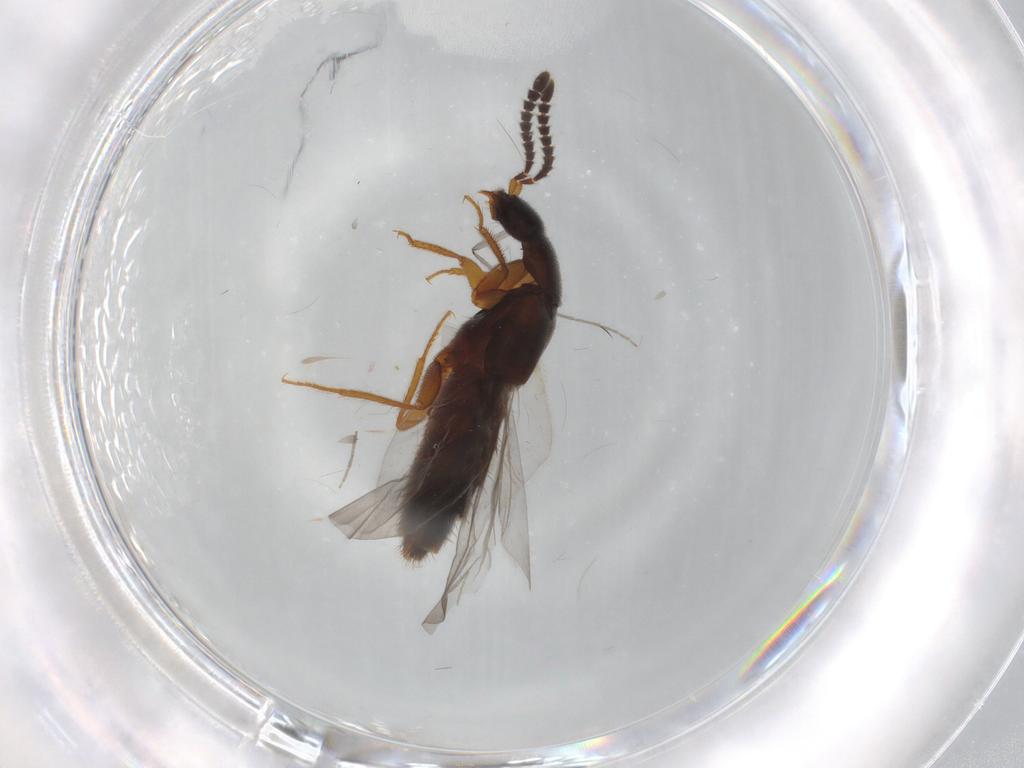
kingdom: Animalia
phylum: Arthropoda
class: Insecta
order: Coleoptera
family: Staphylinidae
